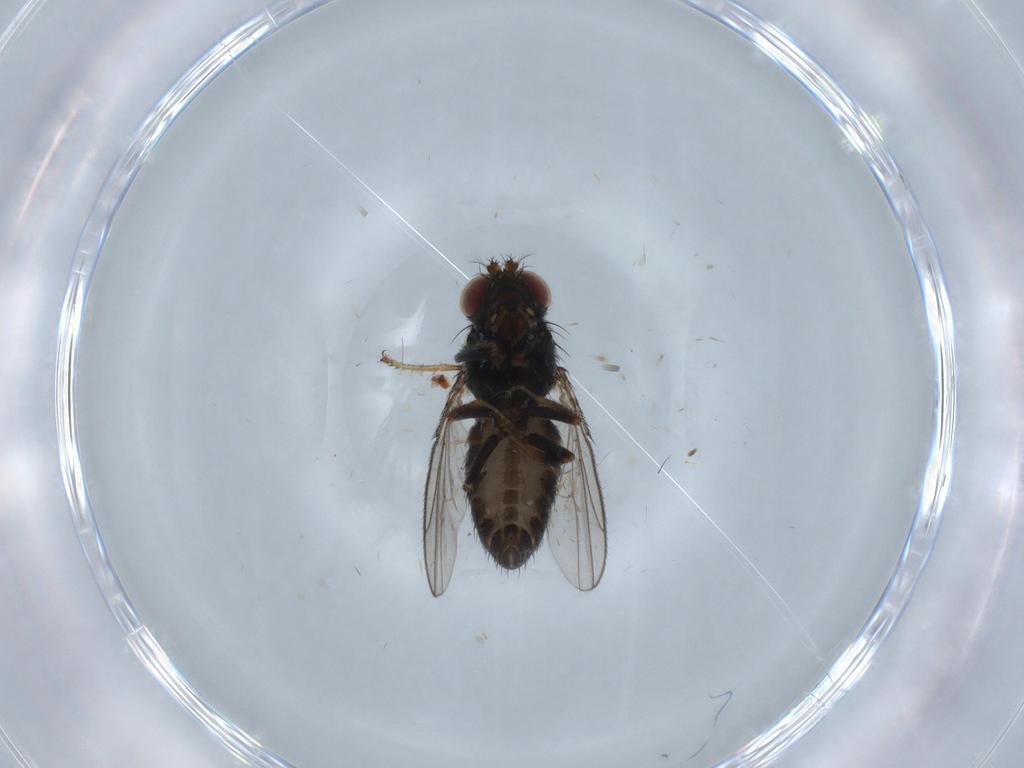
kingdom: Animalia
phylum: Arthropoda
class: Insecta
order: Diptera
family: Chironomidae
